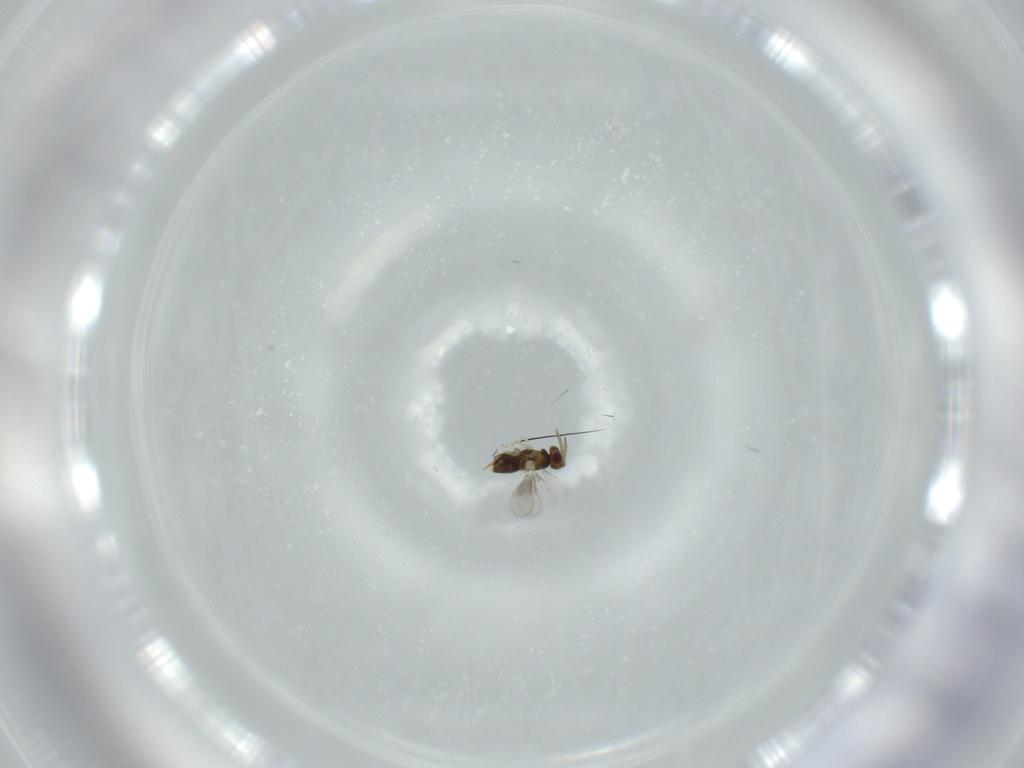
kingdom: Animalia
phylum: Arthropoda
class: Insecta
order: Hymenoptera
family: Aphelinidae
